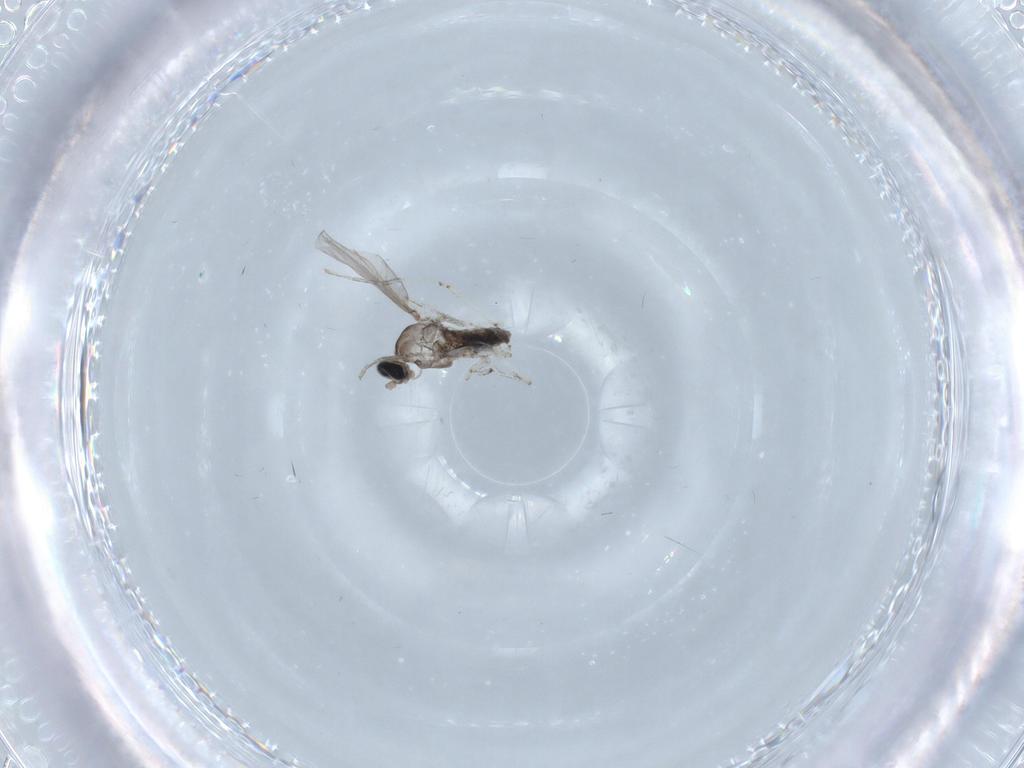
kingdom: Animalia
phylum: Arthropoda
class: Insecta
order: Diptera
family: Cecidomyiidae
